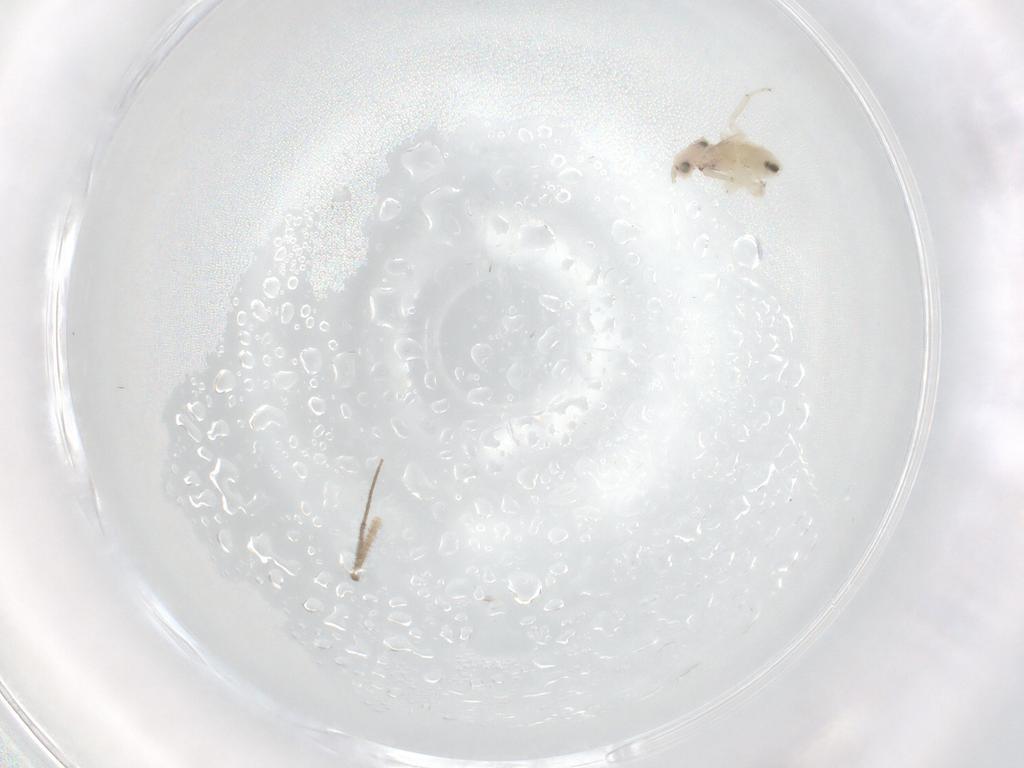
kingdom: Animalia
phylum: Arthropoda
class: Insecta
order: Psocodea
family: Lepidopsocidae
